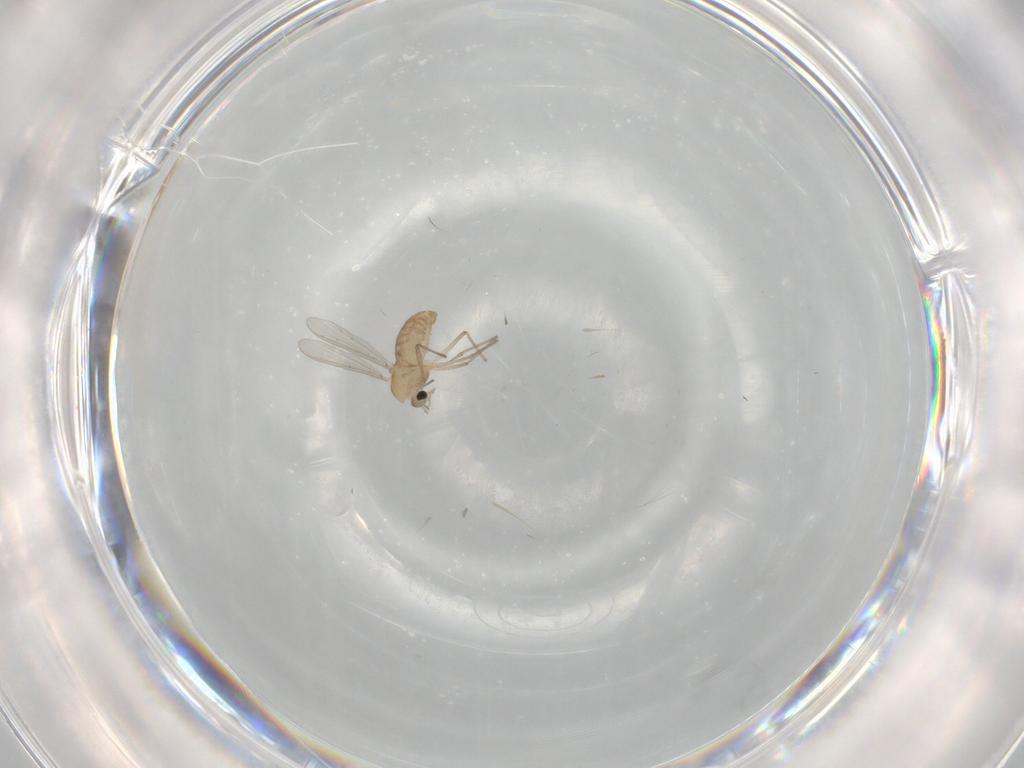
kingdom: Animalia
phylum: Arthropoda
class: Insecta
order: Diptera
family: Chironomidae
